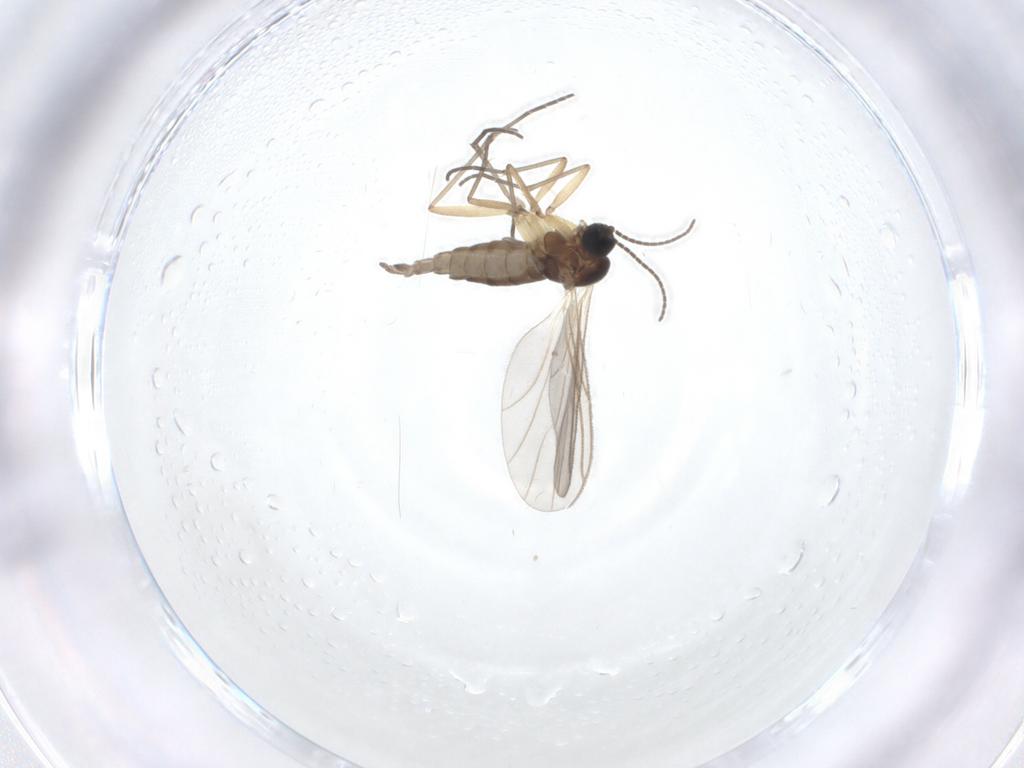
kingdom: Animalia
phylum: Arthropoda
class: Insecta
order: Diptera
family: Sciaridae
